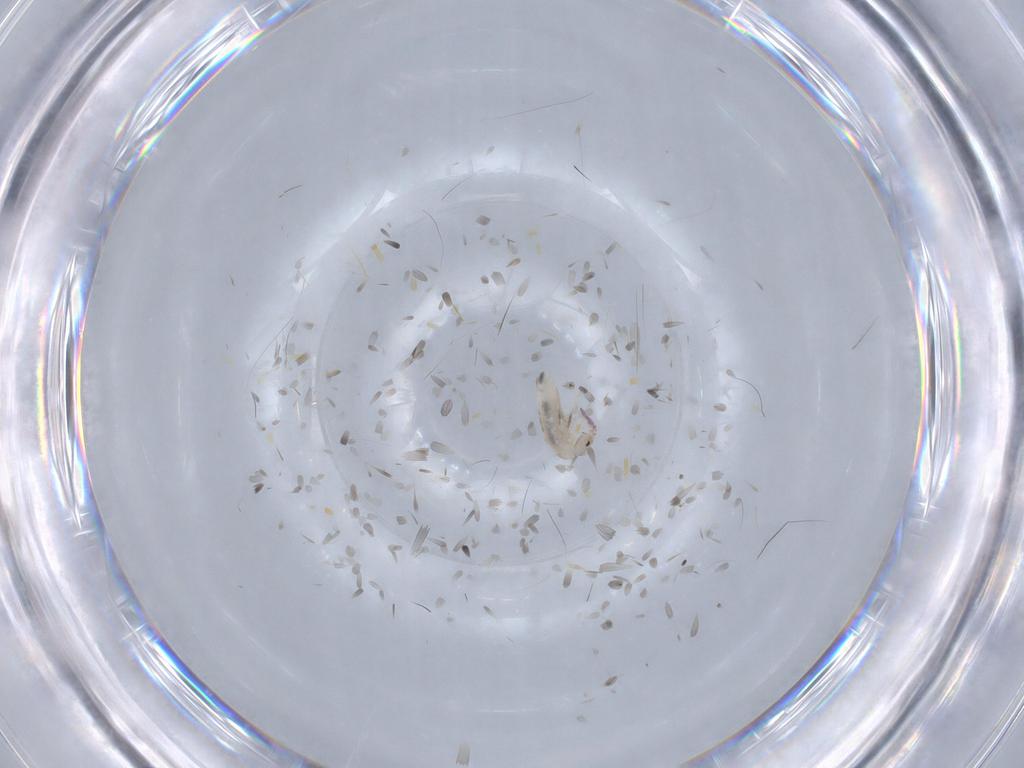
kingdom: Animalia
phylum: Arthropoda
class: Collembola
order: Entomobryomorpha
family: Entomobryidae
